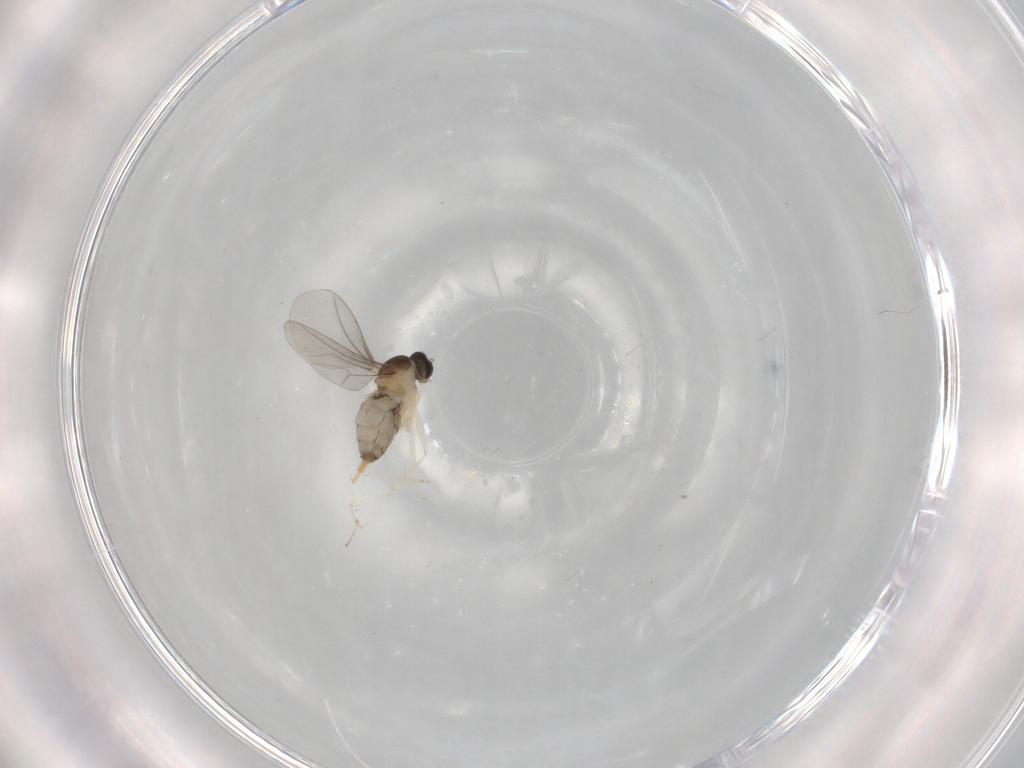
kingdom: Animalia
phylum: Arthropoda
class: Insecta
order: Diptera
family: Cecidomyiidae
